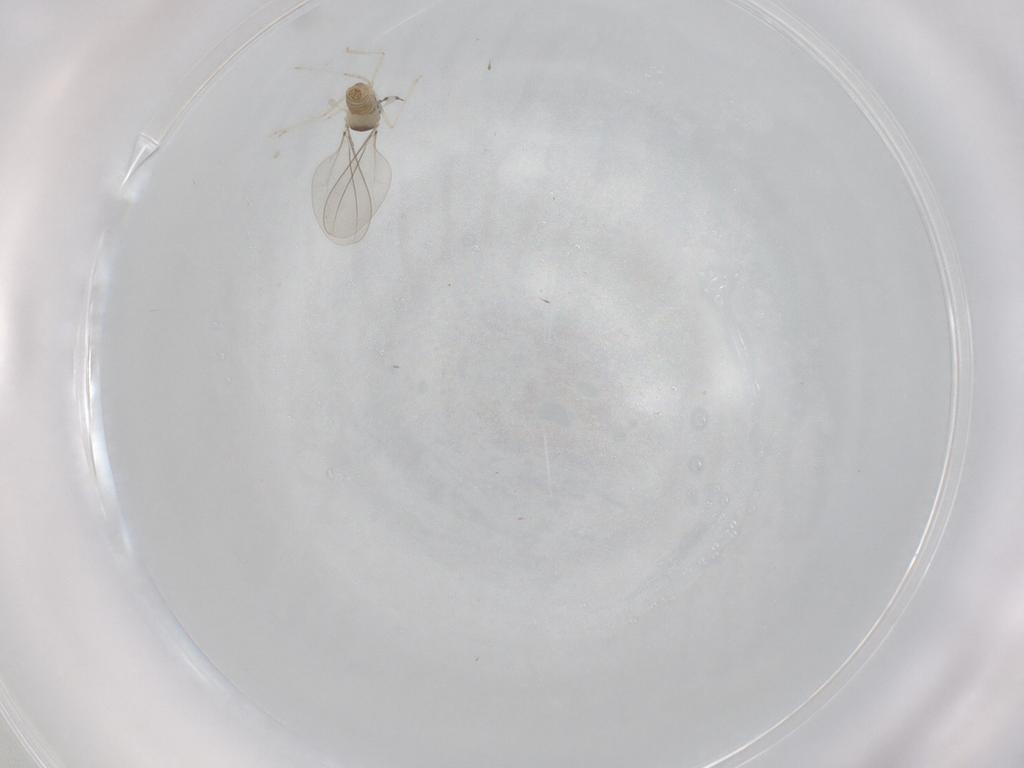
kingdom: Animalia
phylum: Arthropoda
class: Insecta
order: Diptera
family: Cecidomyiidae
